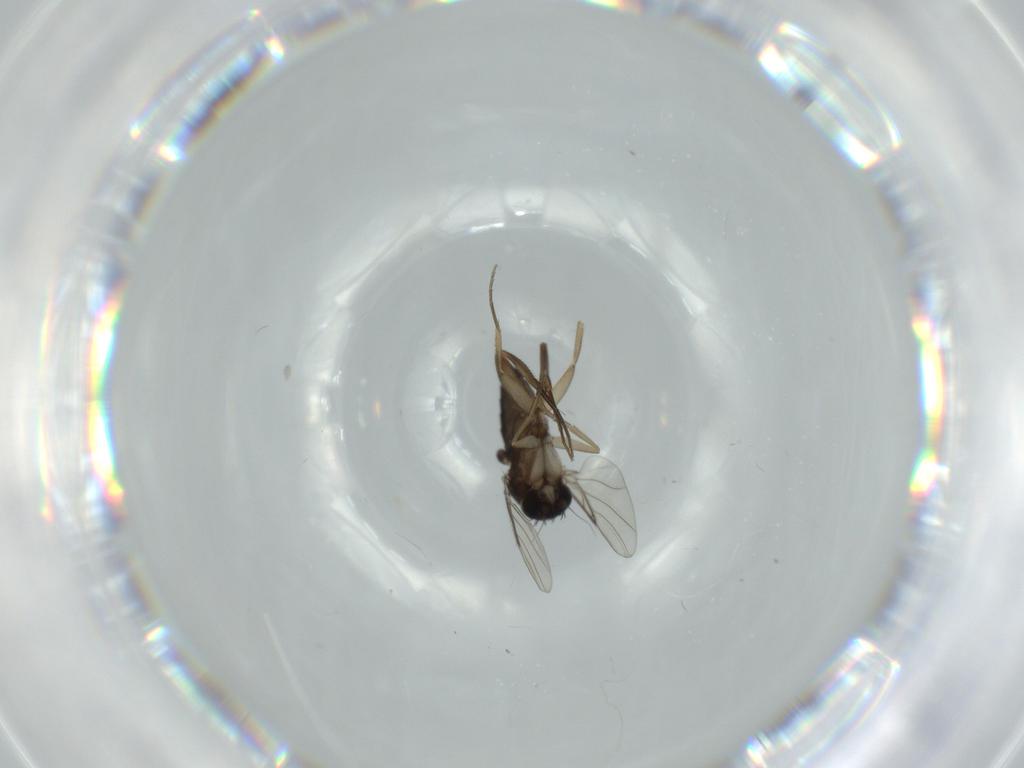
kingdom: Animalia
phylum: Arthropoda
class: Insecta
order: Diptera
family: Phoridae
